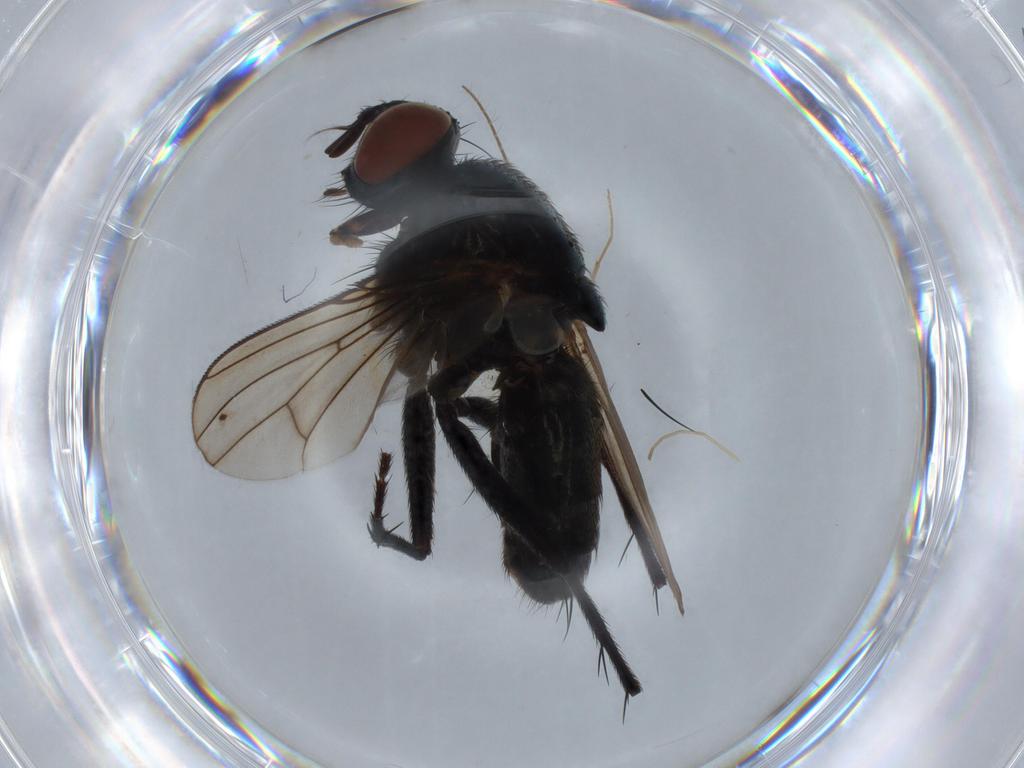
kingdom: Animalia
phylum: Arthropoda
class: Insecta
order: Diptera
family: Muscidae
